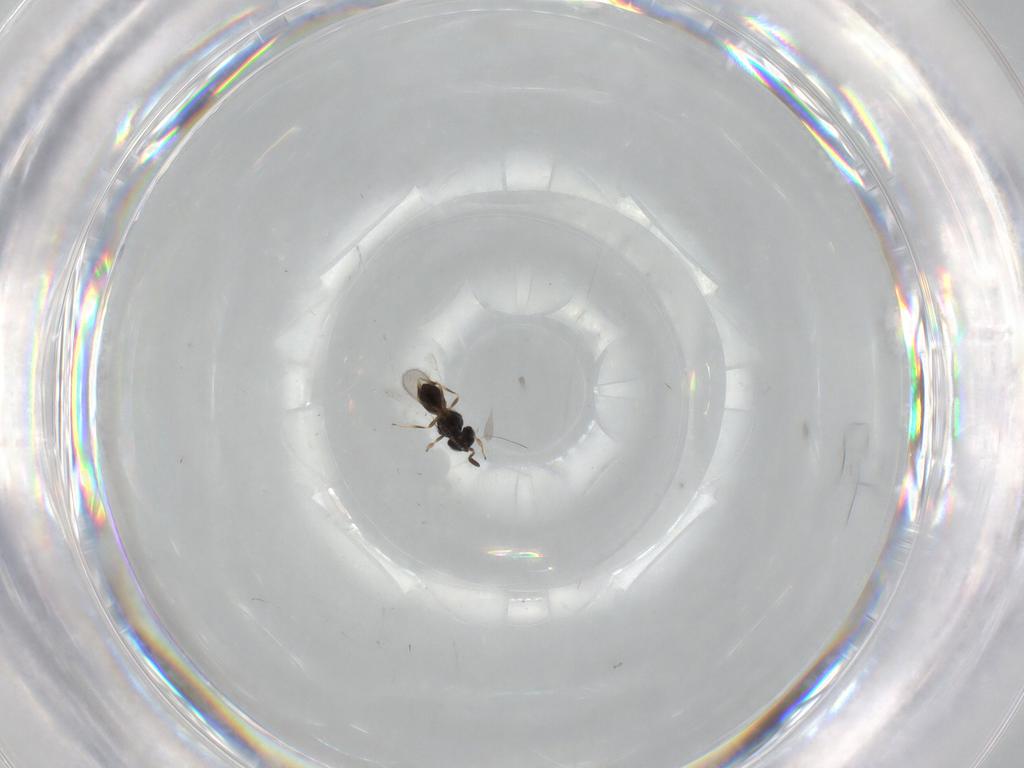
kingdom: Animalia
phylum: Arthropoda
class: Insecta
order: Hymenoptera
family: Scelionidae
